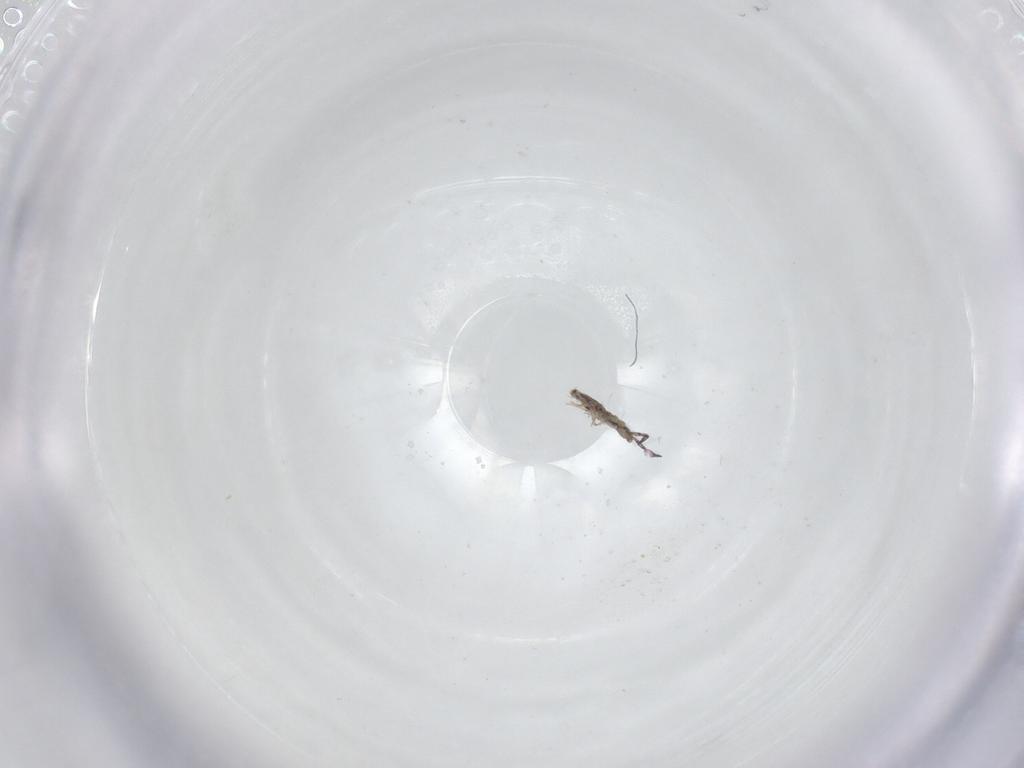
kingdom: Animalia
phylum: Arthropoda
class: Collembola
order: Entomobryomorpha
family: Entomobryidae
